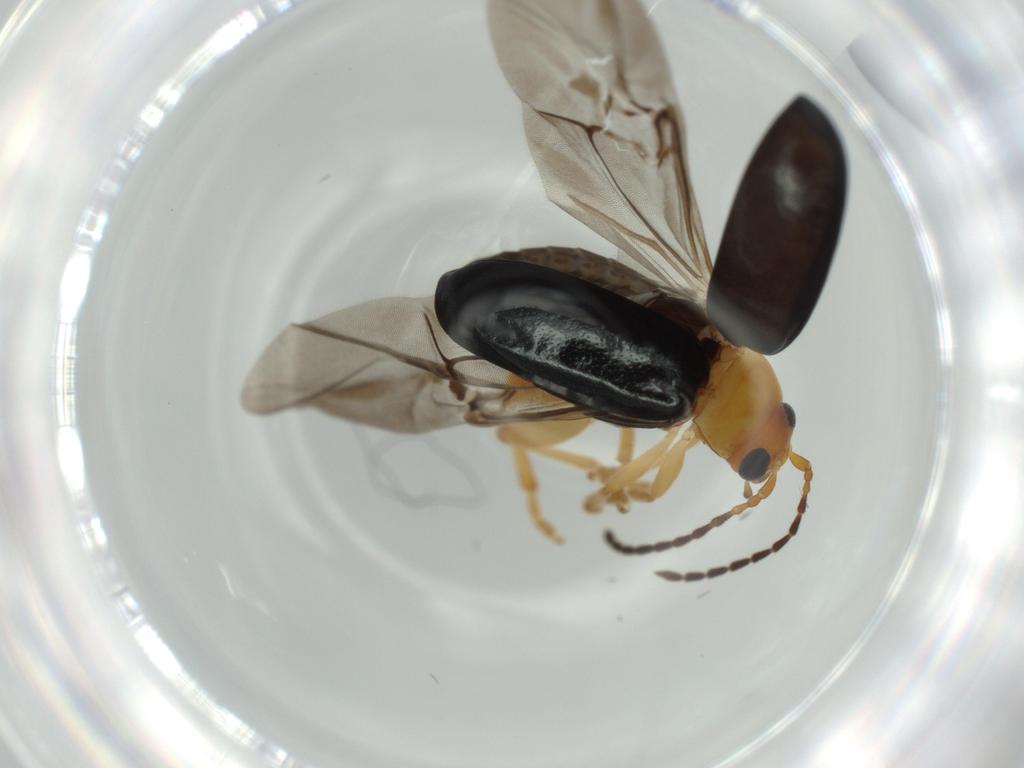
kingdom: Animalia
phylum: Arthropoda
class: Insecta
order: Coleoptera
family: Chrysomelidae
